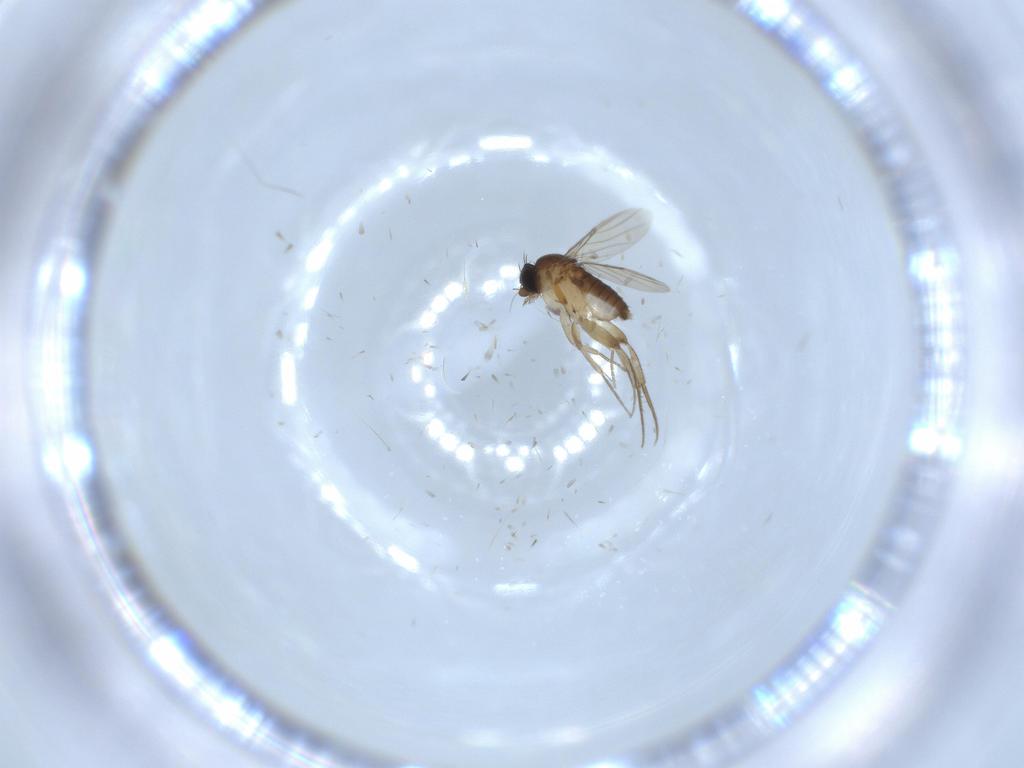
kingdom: Animalia
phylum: Arthropoda
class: Insecta
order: Diptera
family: Phoridae
